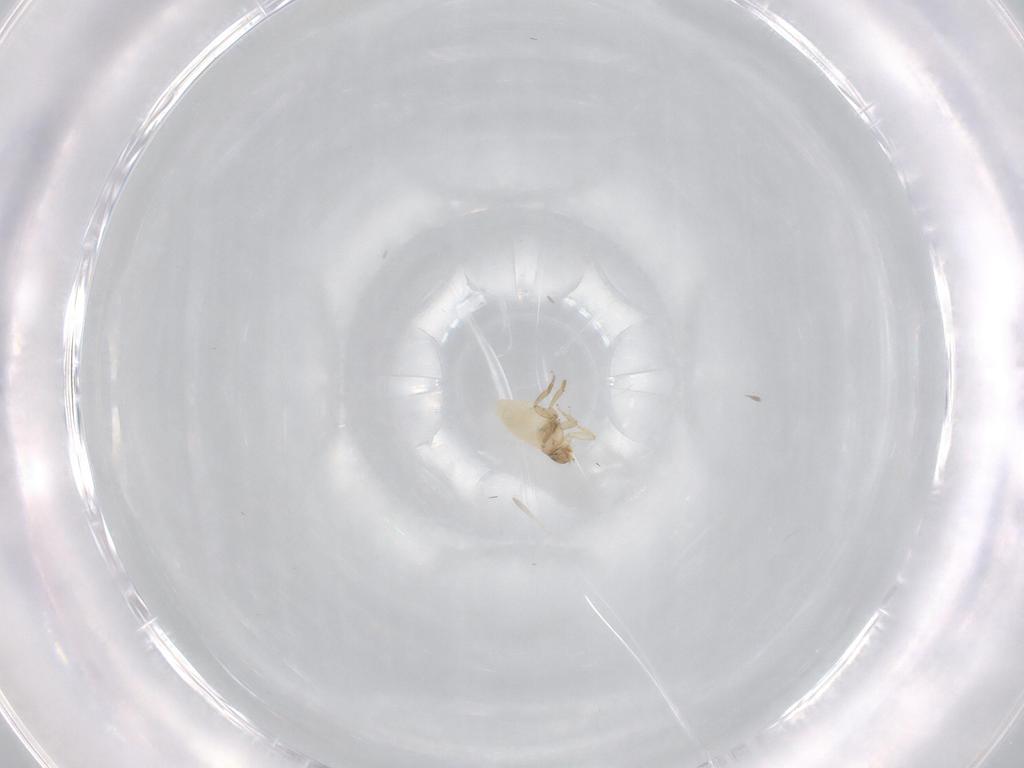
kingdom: Animalia
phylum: Arthropoda
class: Insecta
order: Diptera
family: Phoridae
